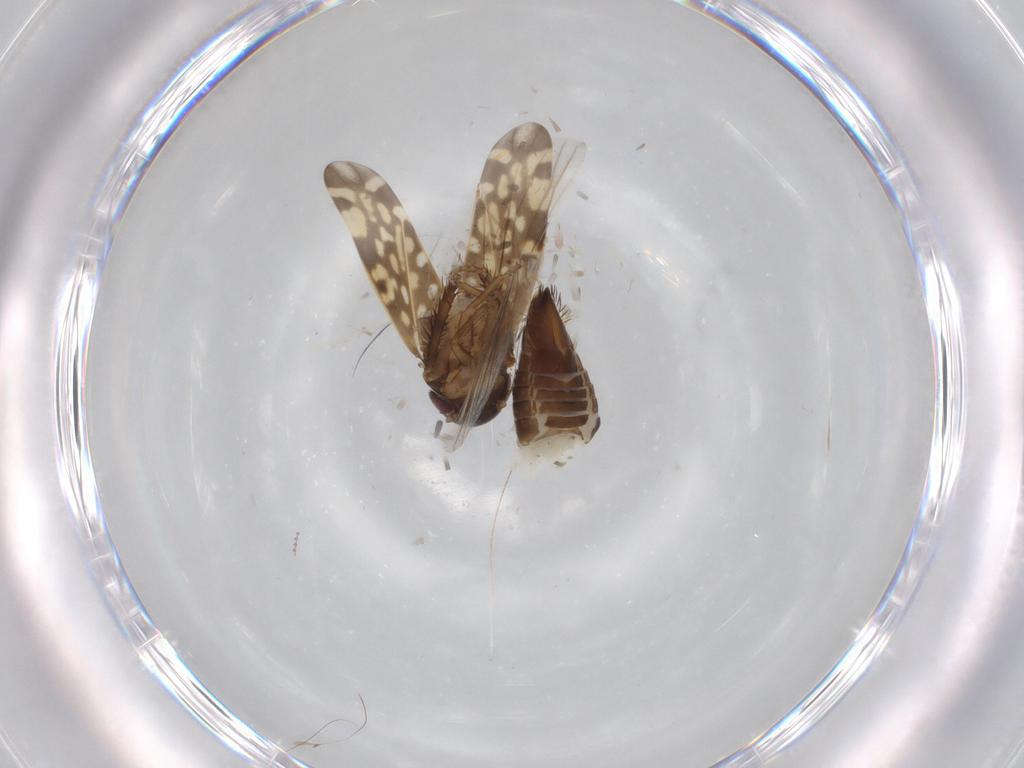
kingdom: Animalia
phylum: Arthropoda
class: Insecta
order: Hemiptera
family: Cicadellidae
